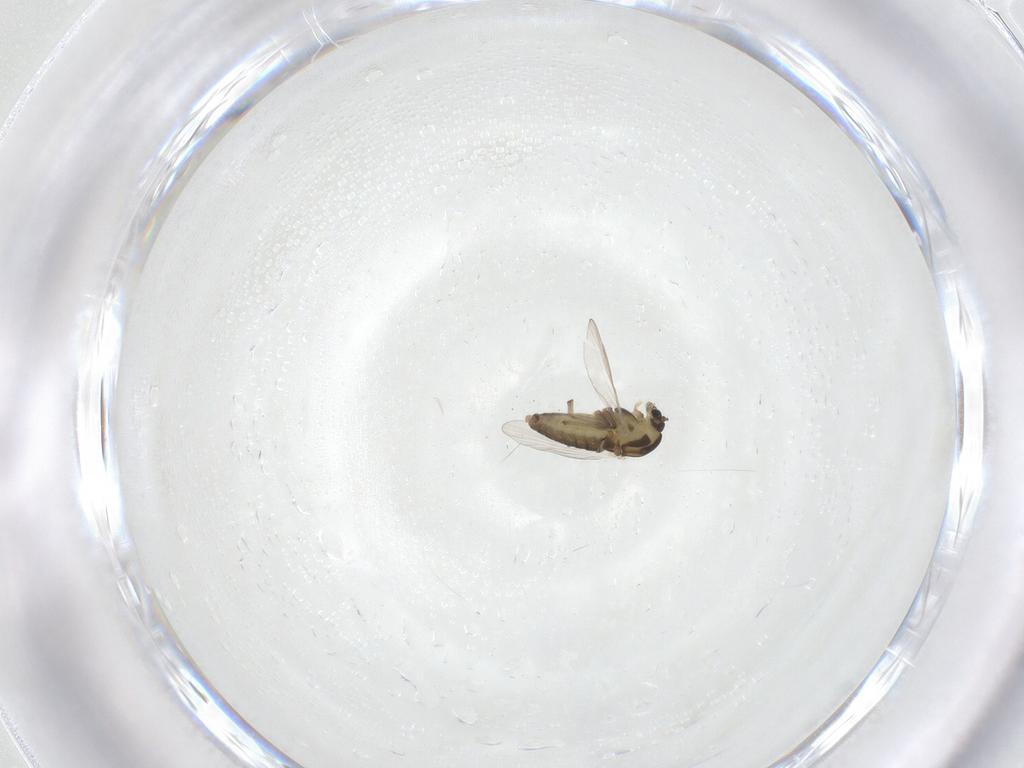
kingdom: Animalia
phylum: Arthropoda
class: Insecta
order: Diptera
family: Chironomidae
